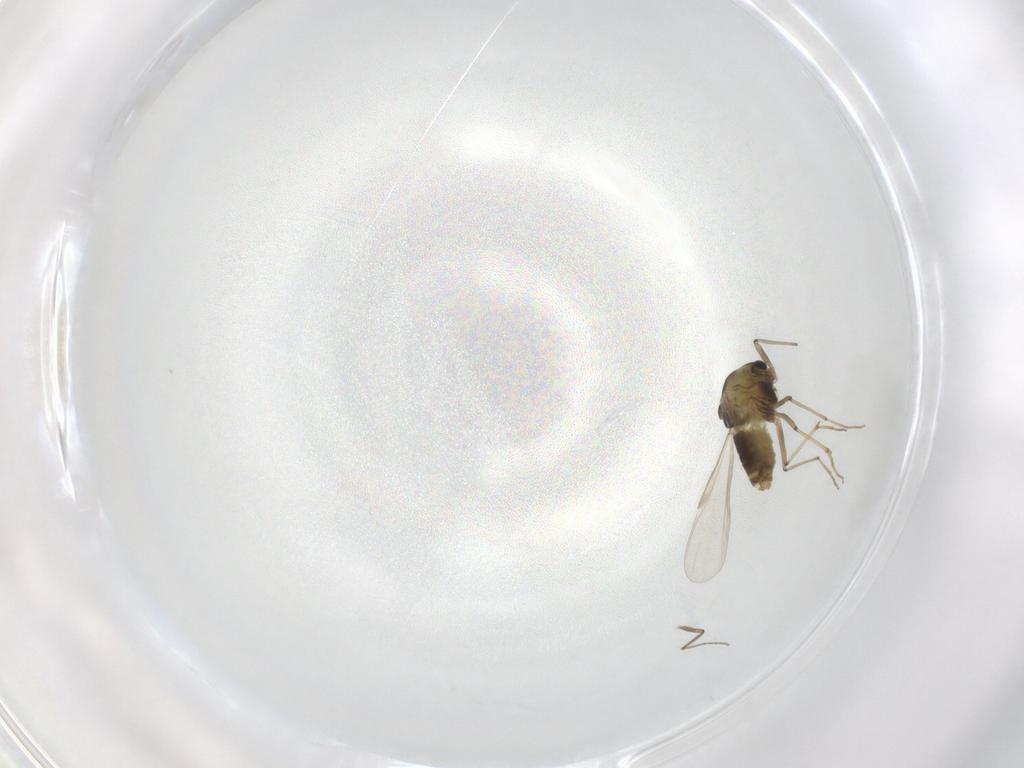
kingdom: Animalia
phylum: Arthropoda
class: Insecta
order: Diptera
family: Chironomidae
